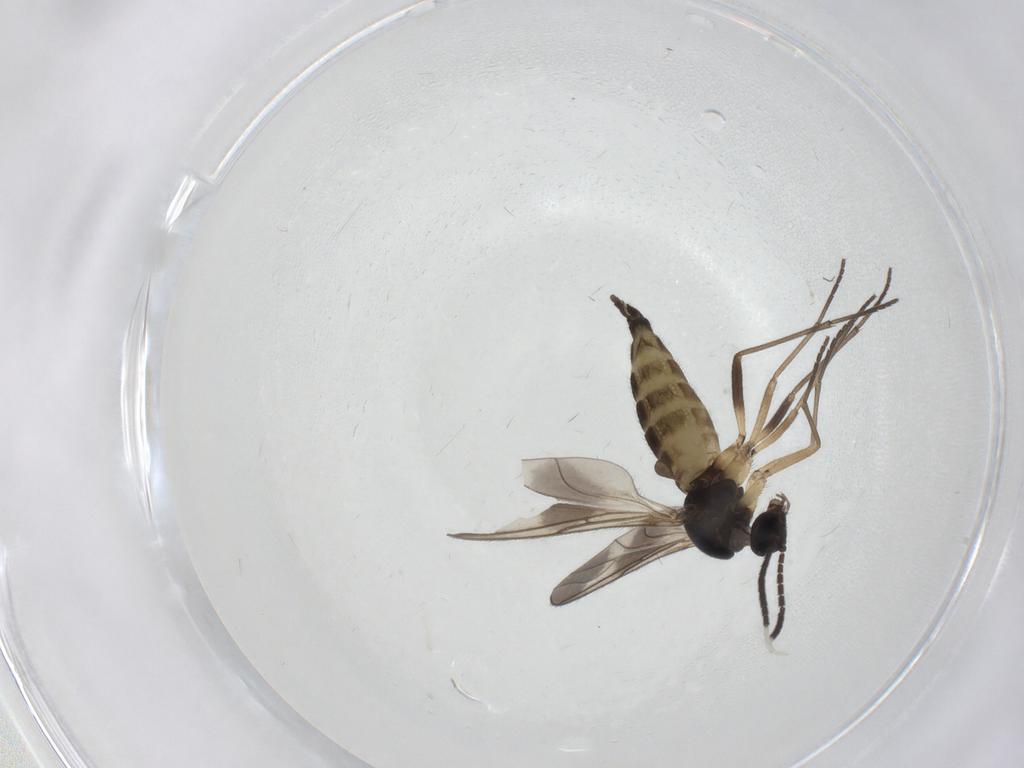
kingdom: Animalia
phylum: Arthropoda
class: Insecta
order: Diptera
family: Sciaridae
